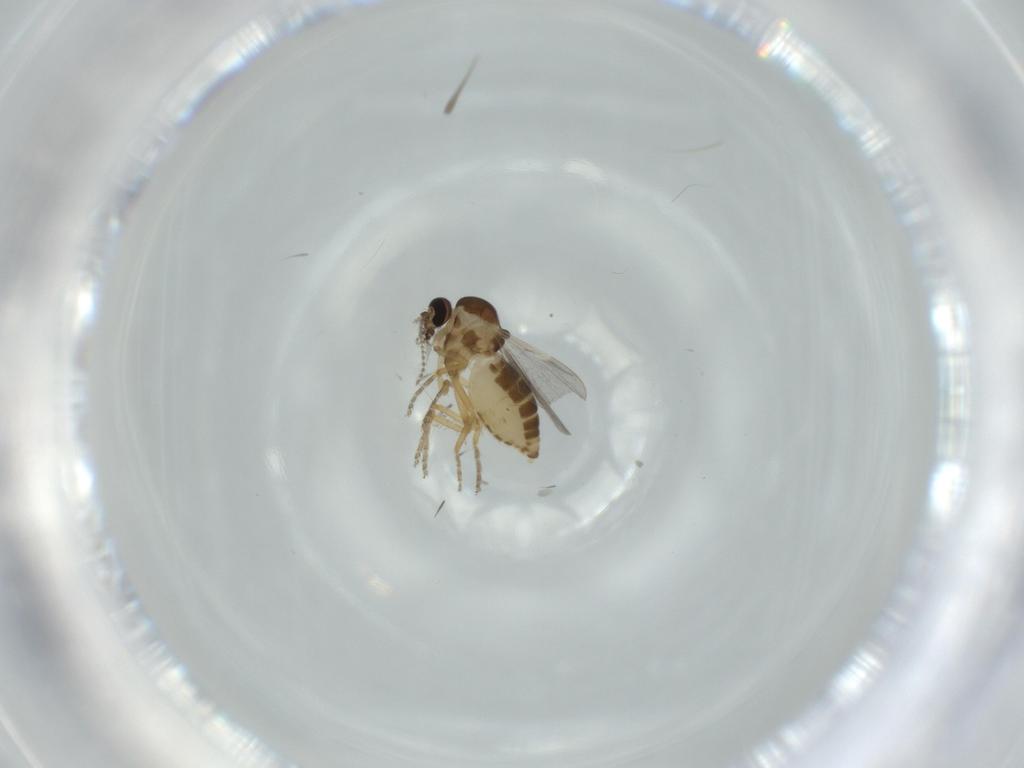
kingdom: Animalia
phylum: Arthropoda
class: Insecta
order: Diptera
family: Ceratopogonidae
